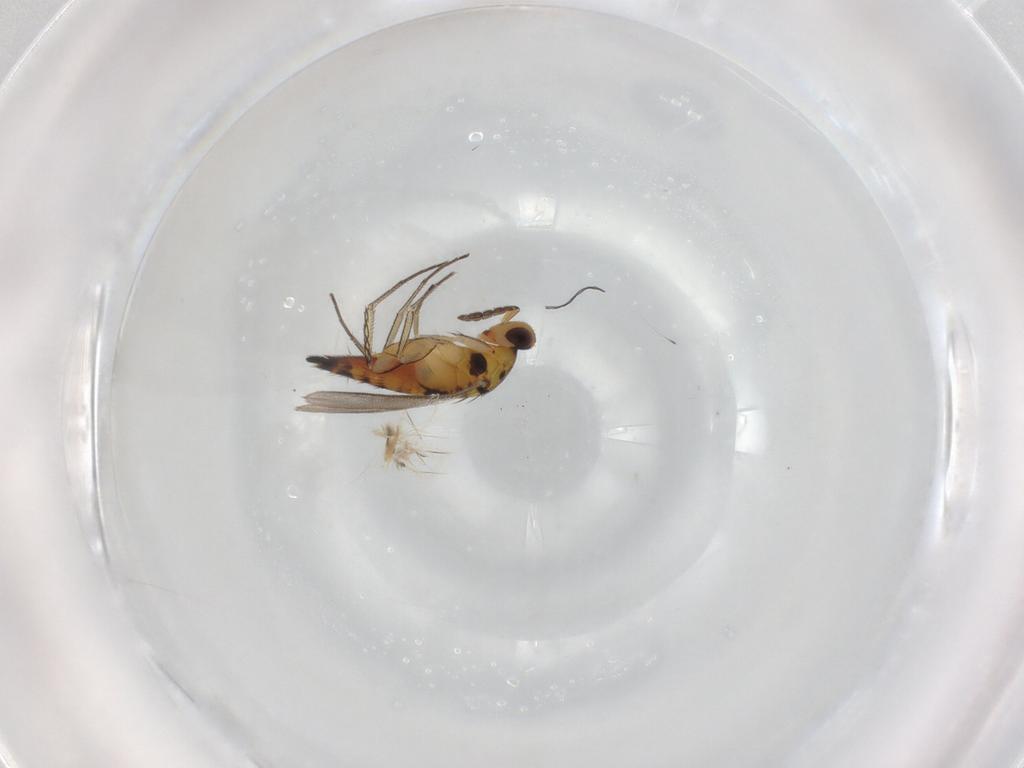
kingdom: Animalia
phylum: Arthropoda
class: Insecta
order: Hymenoptera
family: Eulophidae
